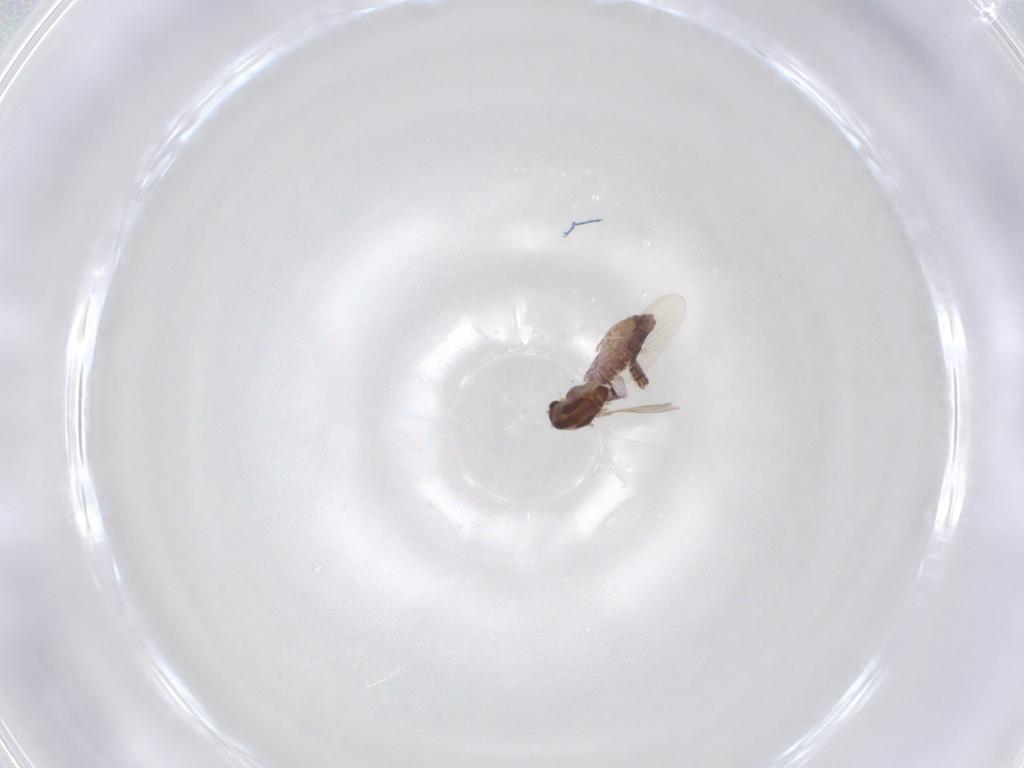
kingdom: Animalia
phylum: Arthropoda
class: Insecta
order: Diptera
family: Chironomidae
